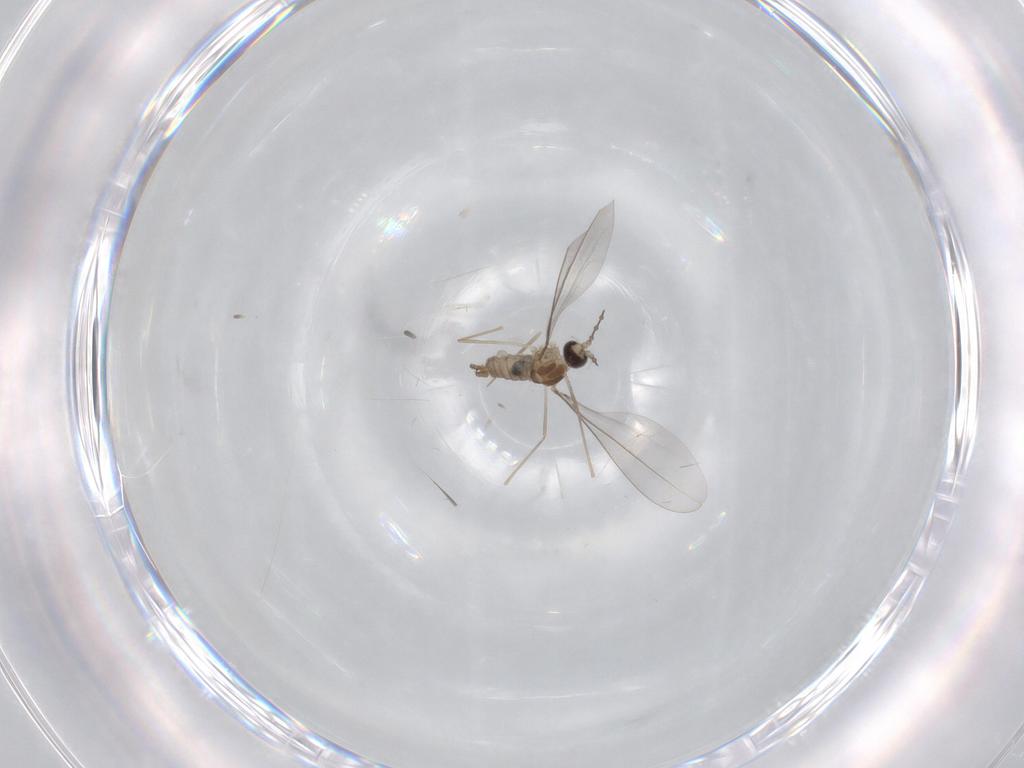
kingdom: Animalia
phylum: Arthropoda
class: Insecta
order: Diptera
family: Cecidomyiidae
